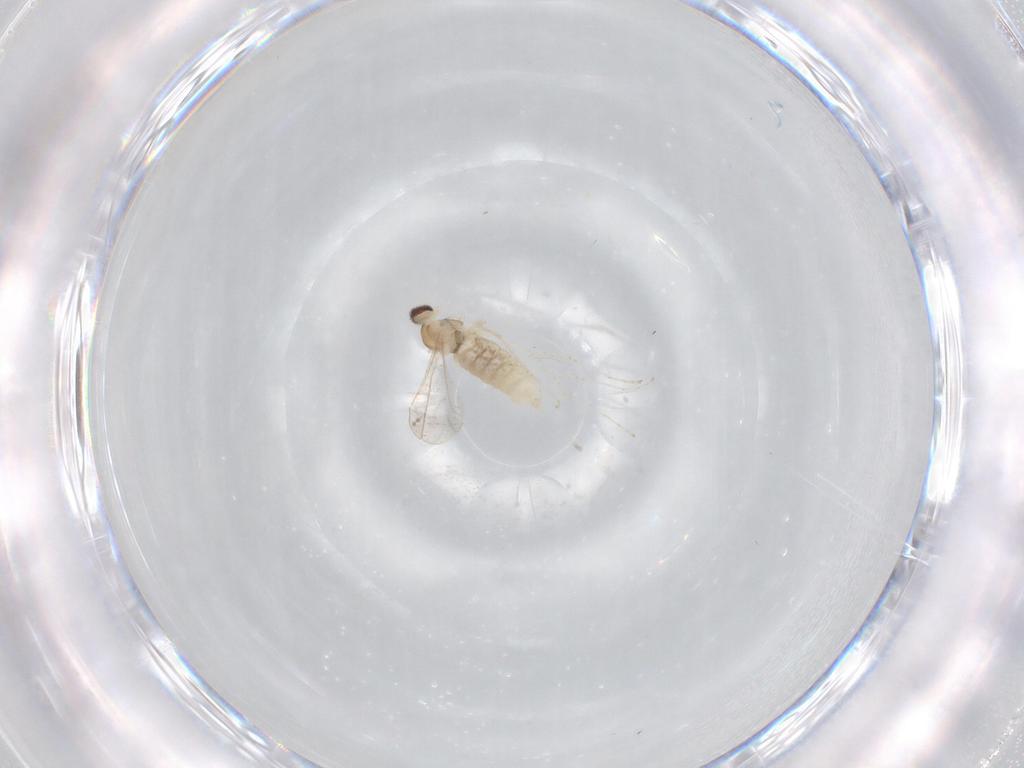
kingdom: Animalia
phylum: Arthropoda
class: Insecta
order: Diptera
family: Cecidomyiidae
